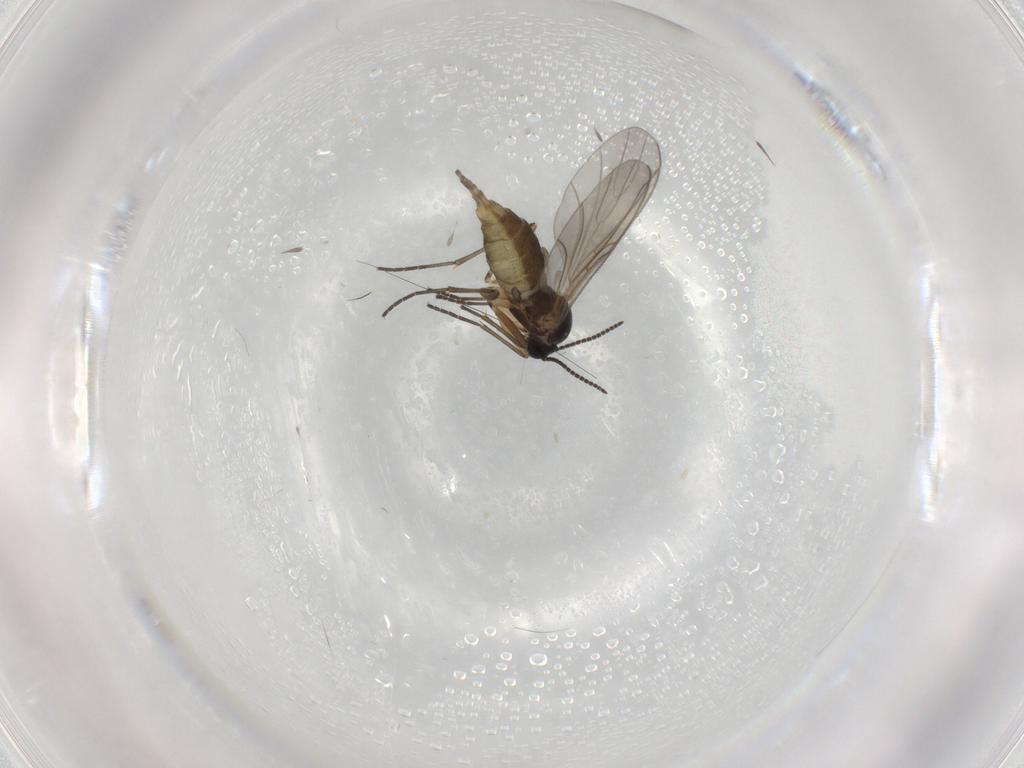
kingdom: Animalia
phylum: Arthropoda
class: Insecta
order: Diptera
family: Sciaridae
